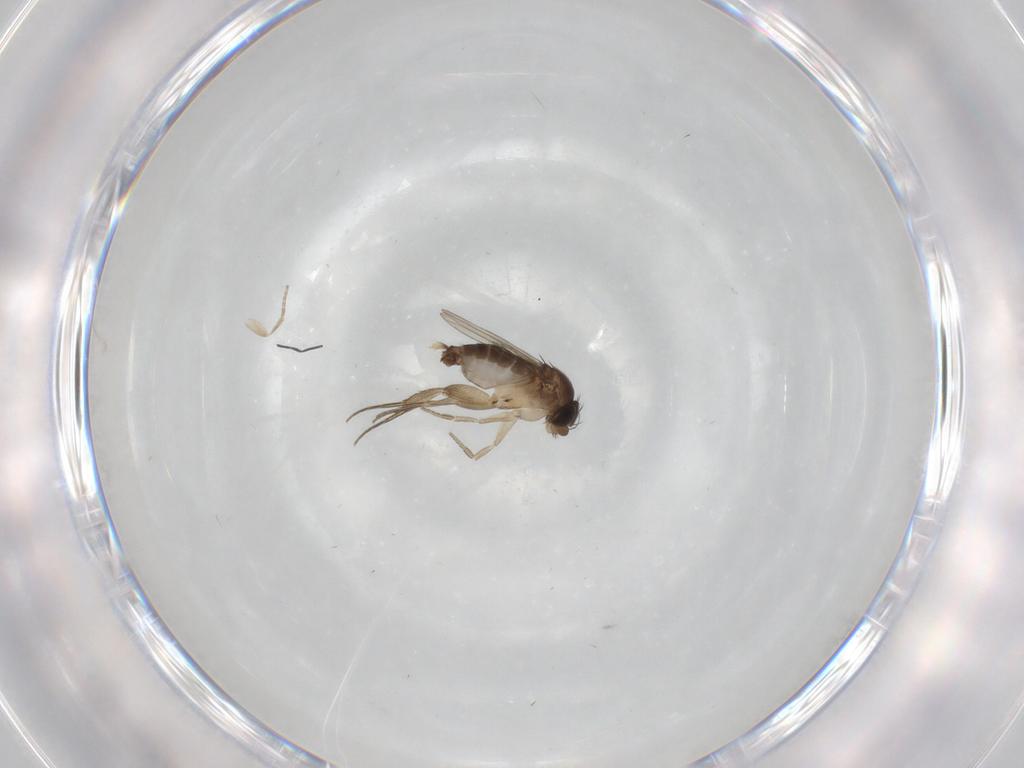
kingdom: Animalia
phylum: Arthropoda
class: Insecta
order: Diptera
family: Phoridae
